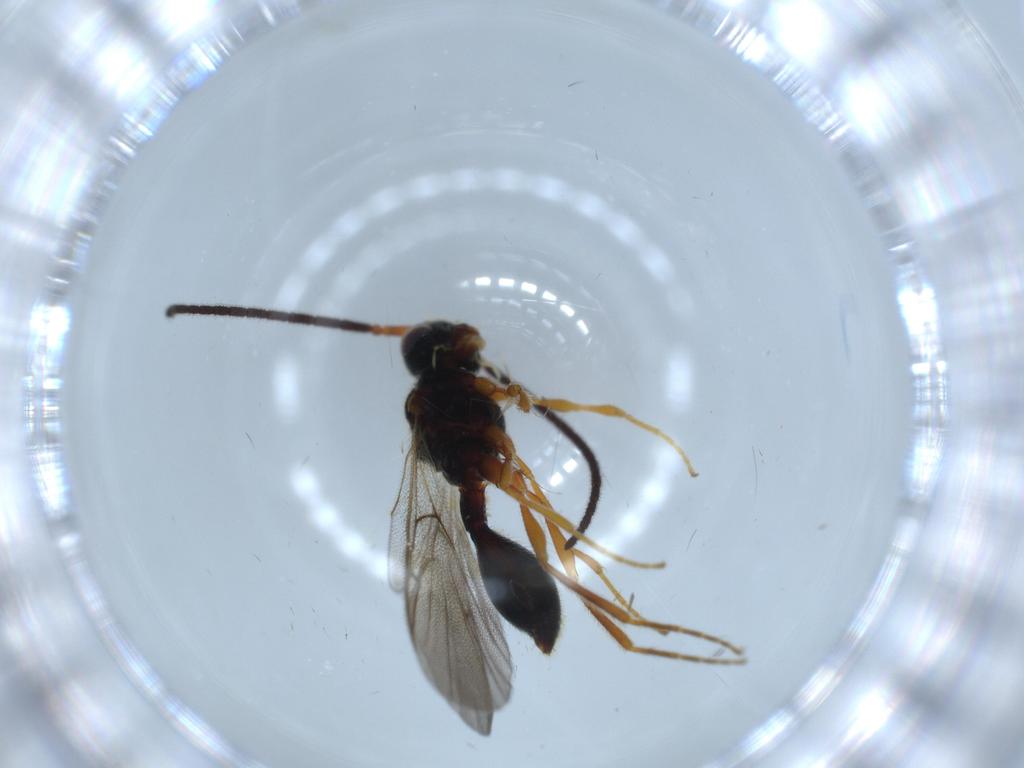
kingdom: Animalia
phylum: Arthropoda
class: Insecta
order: Hymenoptera
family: Diapriidae
